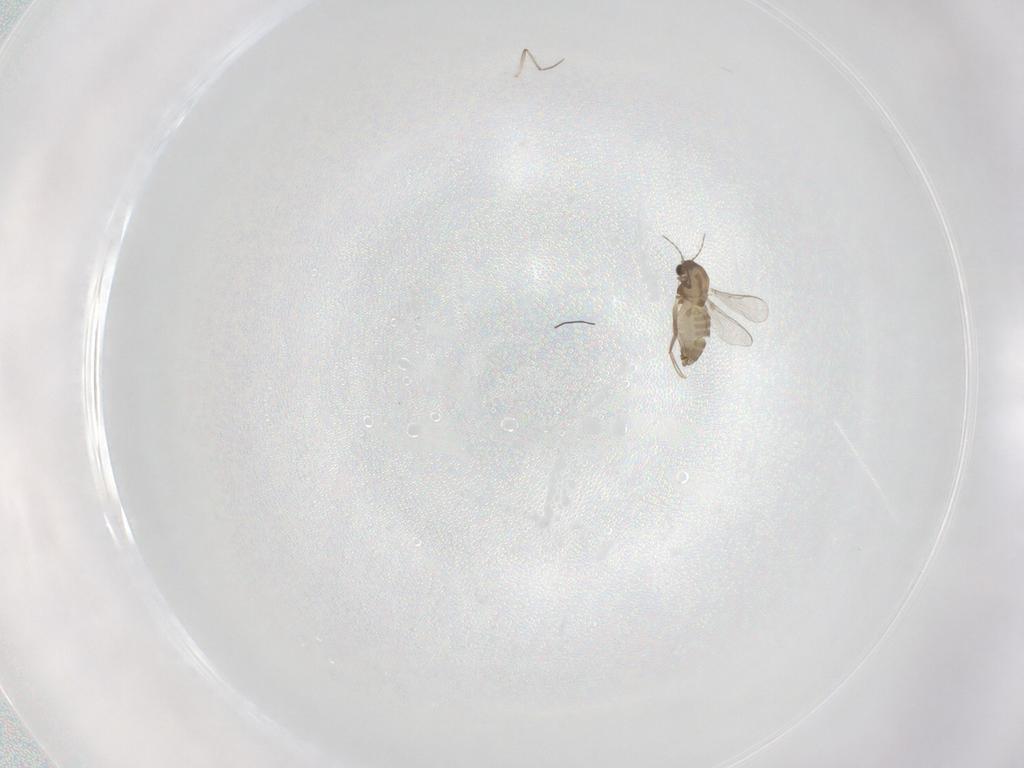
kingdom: Animalia
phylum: Arthropoda
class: Insecta
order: Diptera
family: Chironomidae
